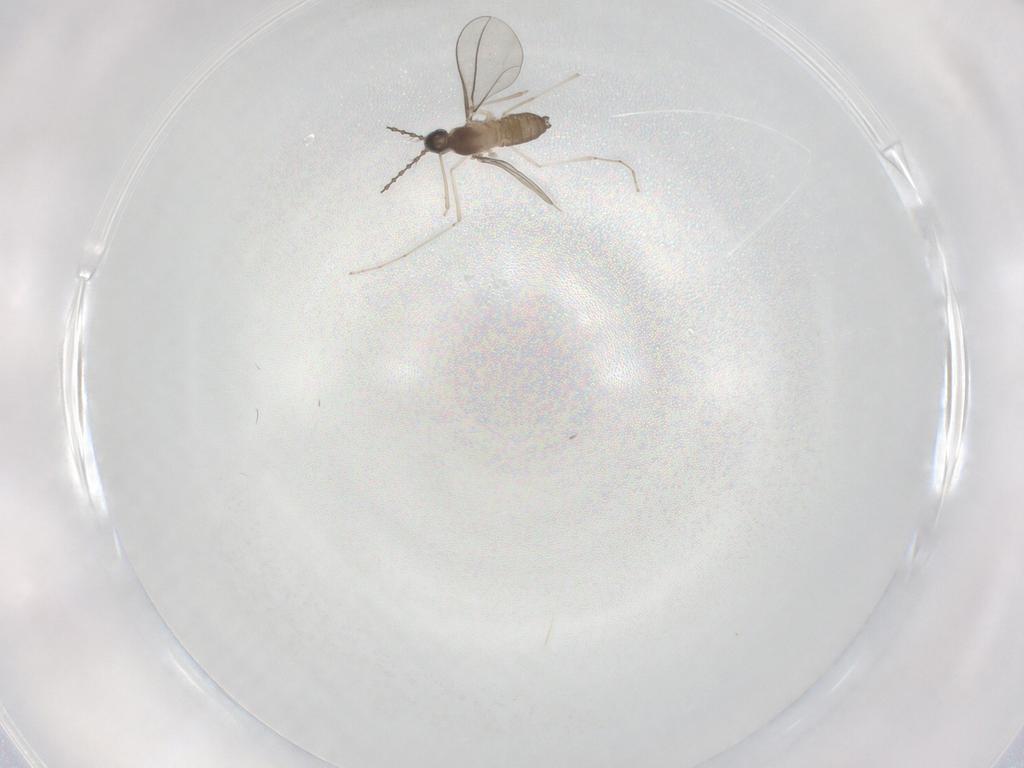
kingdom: Animalia
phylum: Arthropoda
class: Insecta
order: Diptera
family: Cecidomyiidae
